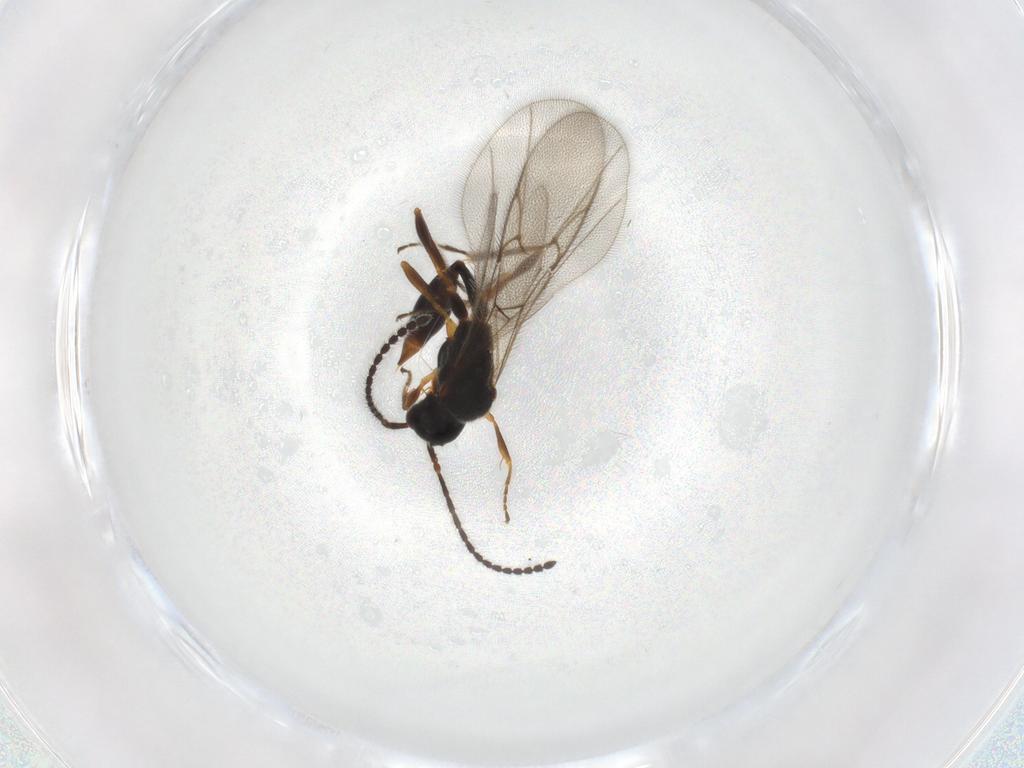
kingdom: Animalia
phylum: Arthropoda
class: Insecta
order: Hymenoptera
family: Diapriidae
